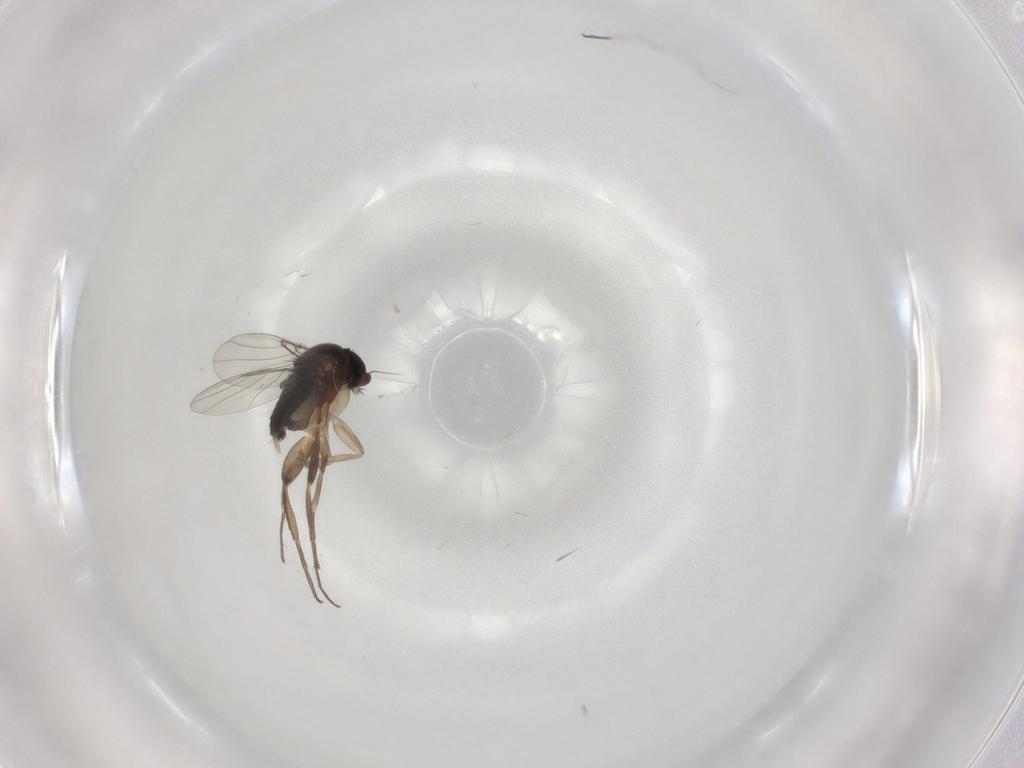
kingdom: Animalia
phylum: Arthropoda
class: Insecta
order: Diptera
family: Phoridae
